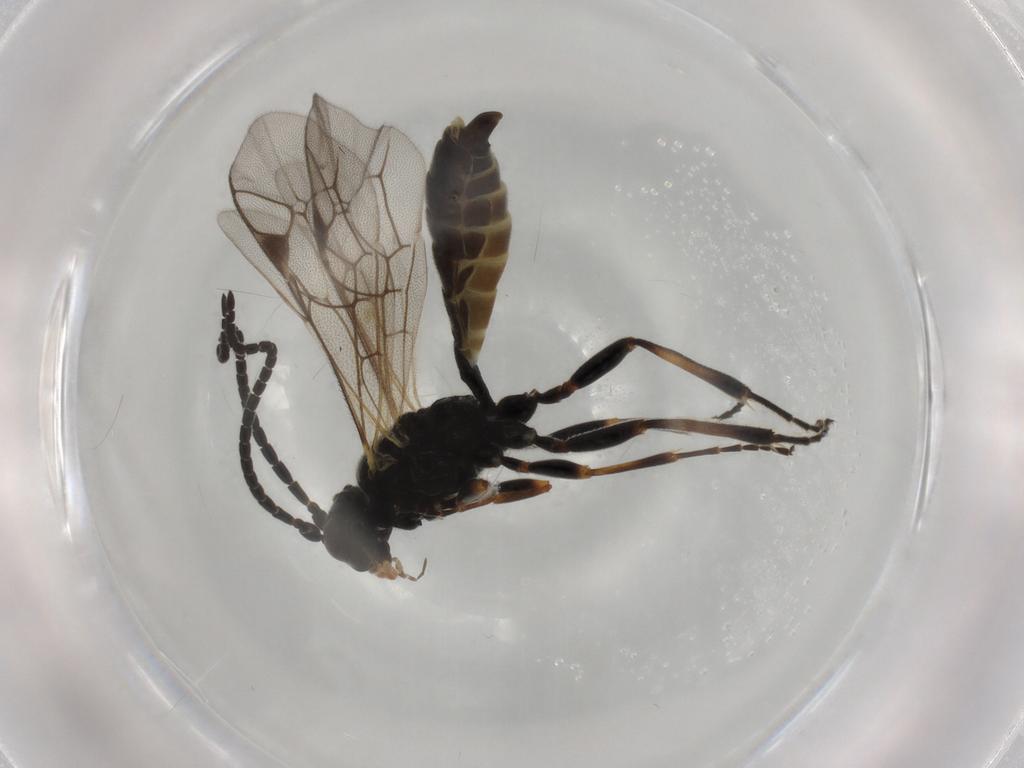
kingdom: Animalia
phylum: Arthropoda
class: Insecta
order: Hymenoptera
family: Ichneumonidae
